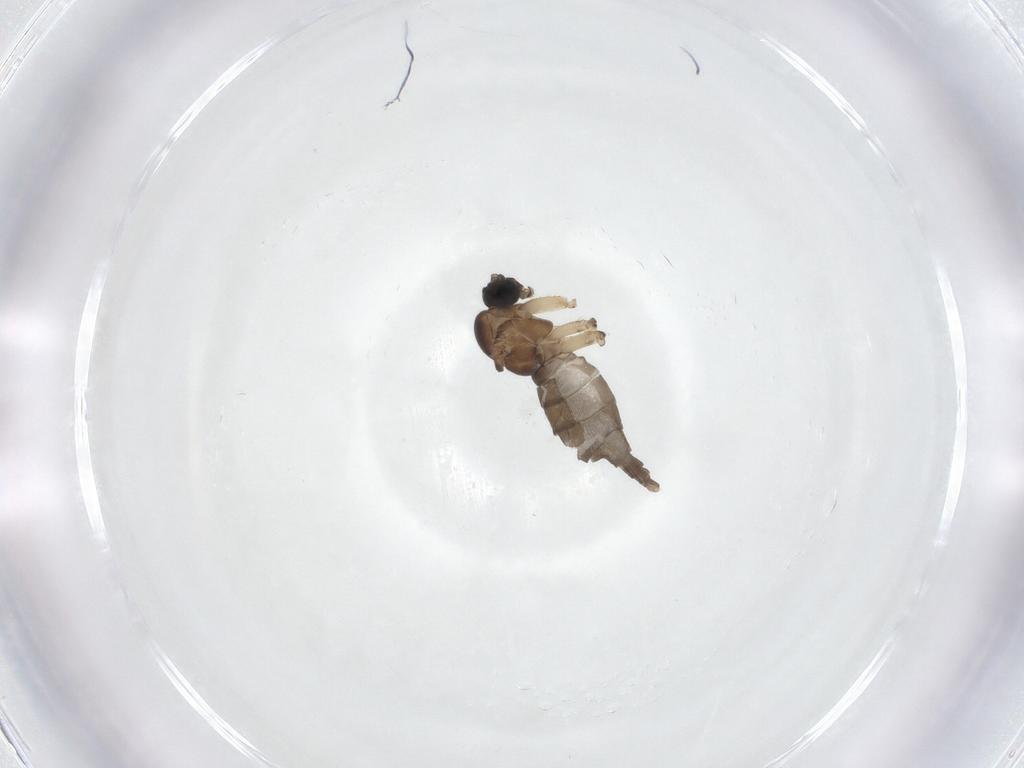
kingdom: Animalia
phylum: Arthropoda
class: Insecta
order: Diptera
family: Sciaridae
